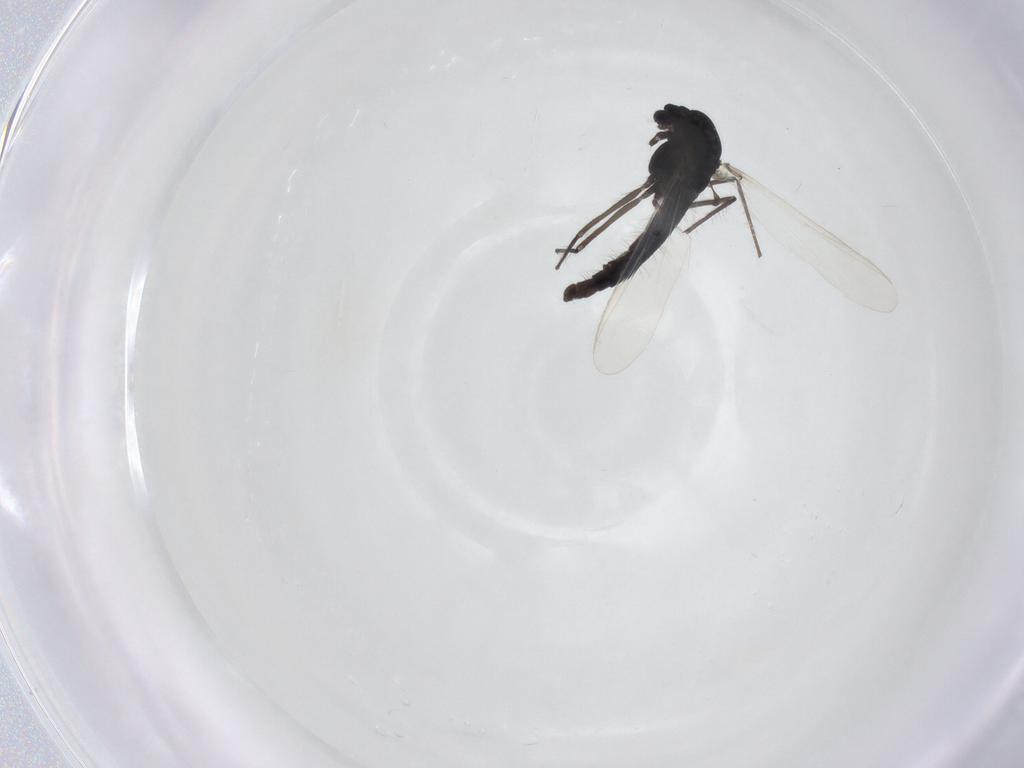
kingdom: Animalia
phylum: Arthropoda
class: Insecta
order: Diptera
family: Chironomidae
